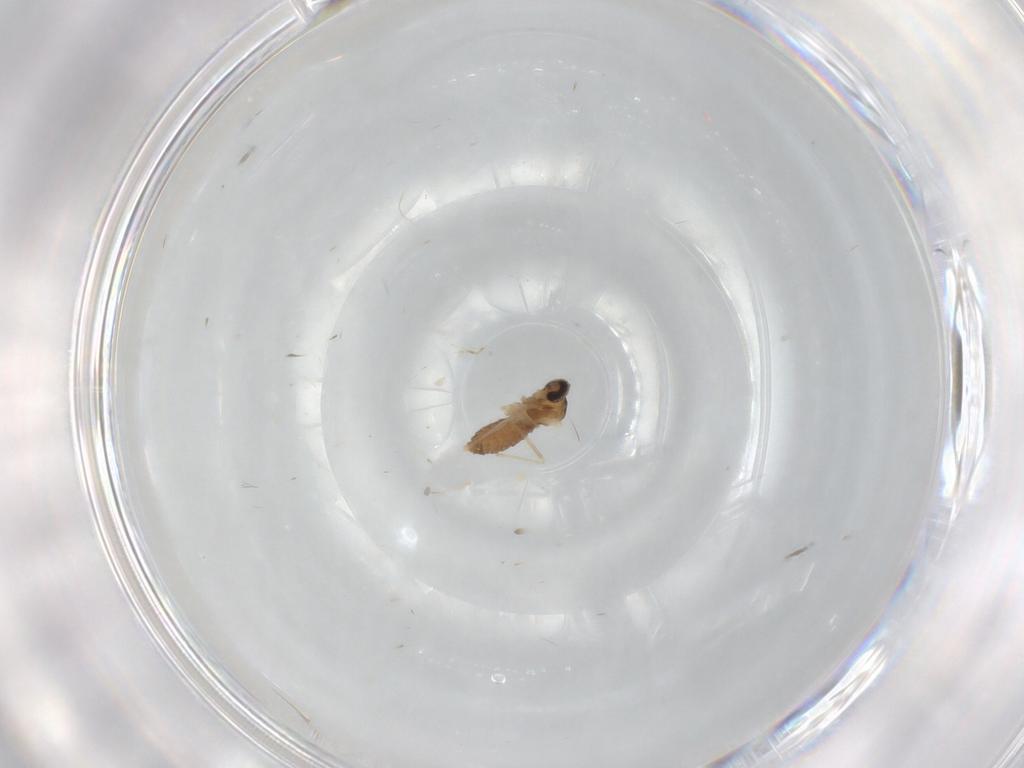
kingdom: Animalia
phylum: Arthropoda
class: Insecta
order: Diptera
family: Cecidomyiidae
